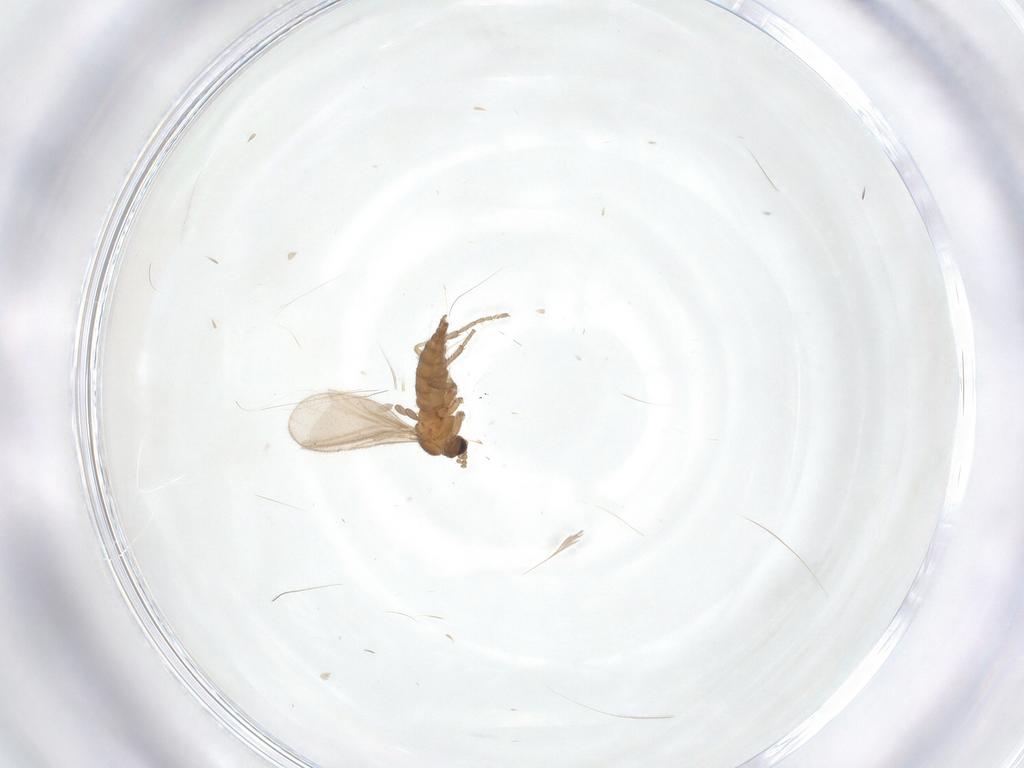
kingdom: Animalia
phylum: Arthropoda
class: Insecta
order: Diptera
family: Sciaridae
